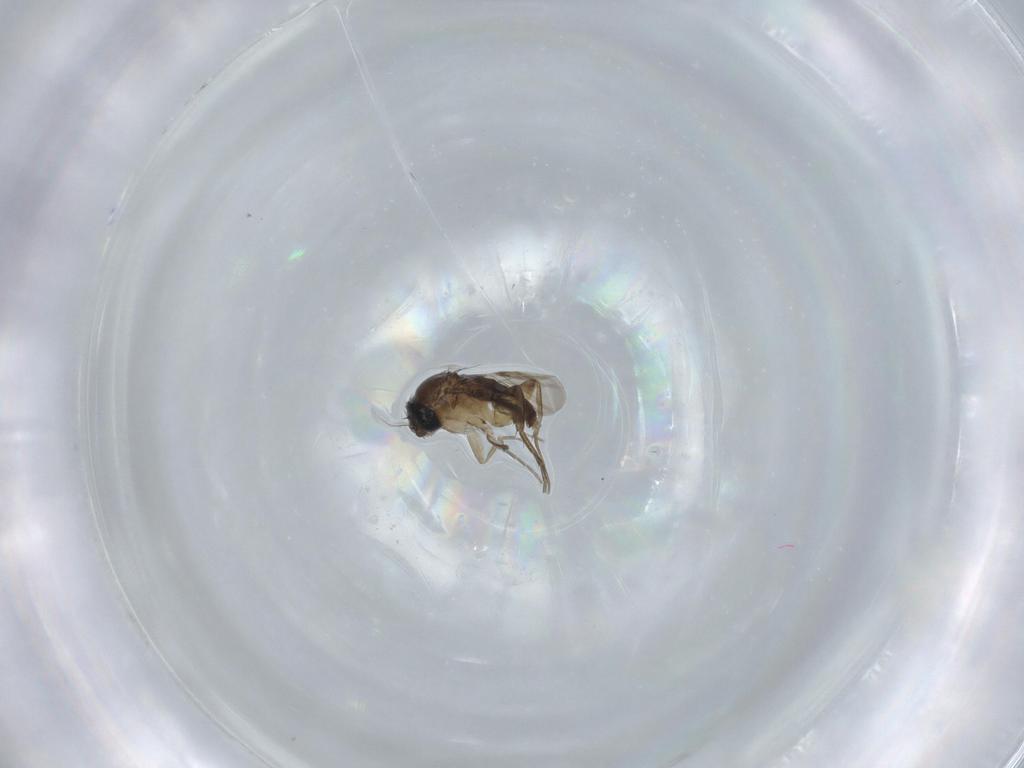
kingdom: Animalia
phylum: Arthropoda
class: Insecta
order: Diptera
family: Phoridae
